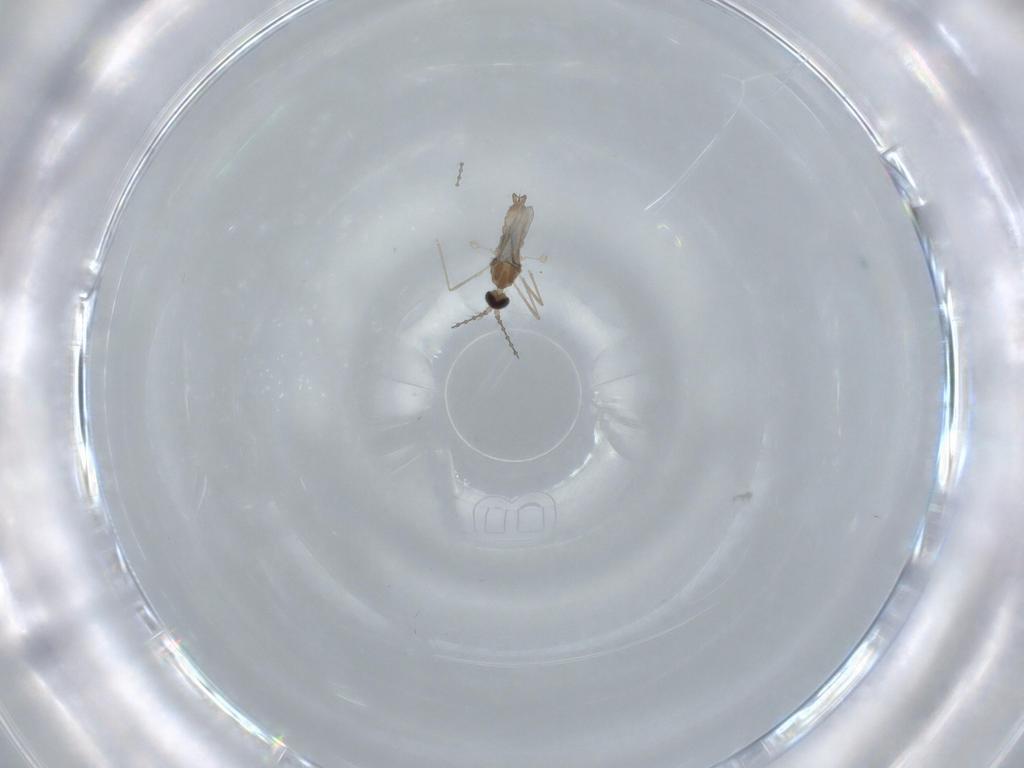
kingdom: Animalia
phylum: Arthropoda
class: Insecta
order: Diptera
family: Cecidomyiidae
